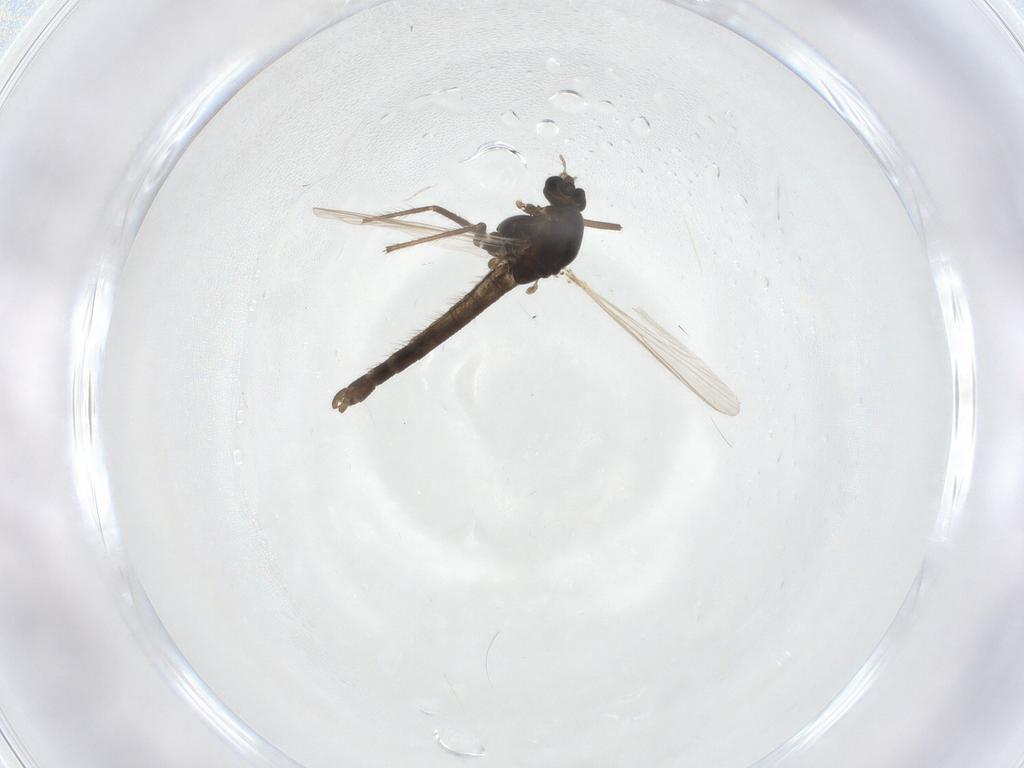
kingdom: Animalia
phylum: Arthropoda
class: Insecta
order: Diptera
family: Chironomidae
